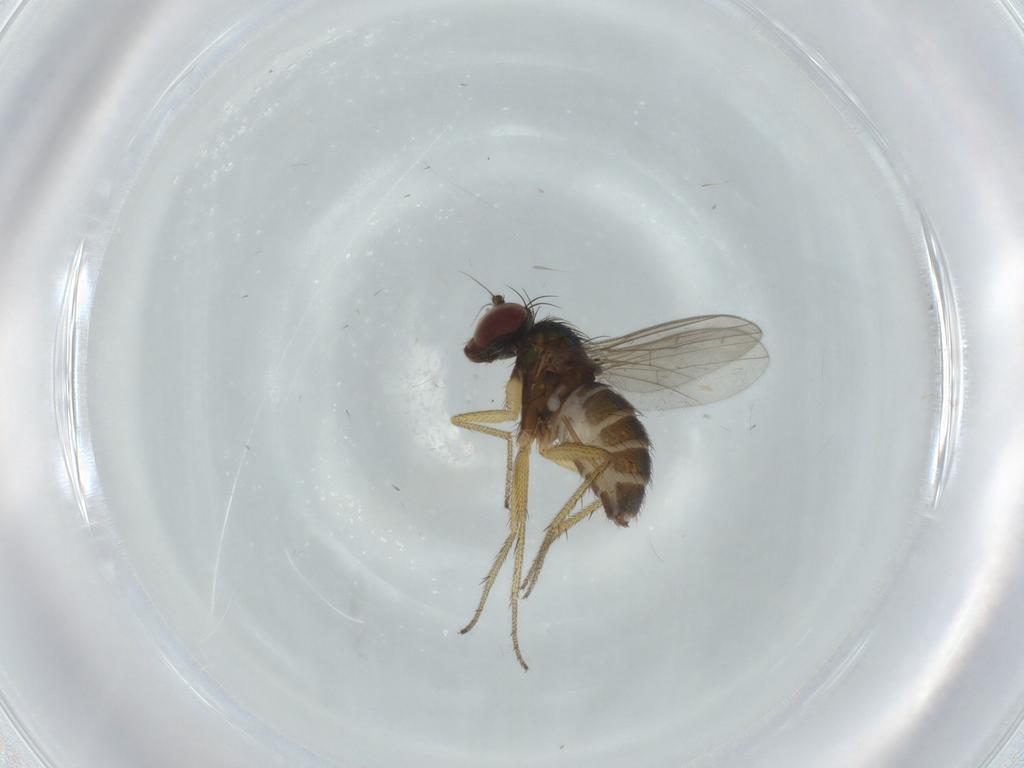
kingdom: Animalia
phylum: Arthropoda
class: Insecta
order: Diptera
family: Dolichopodidae
